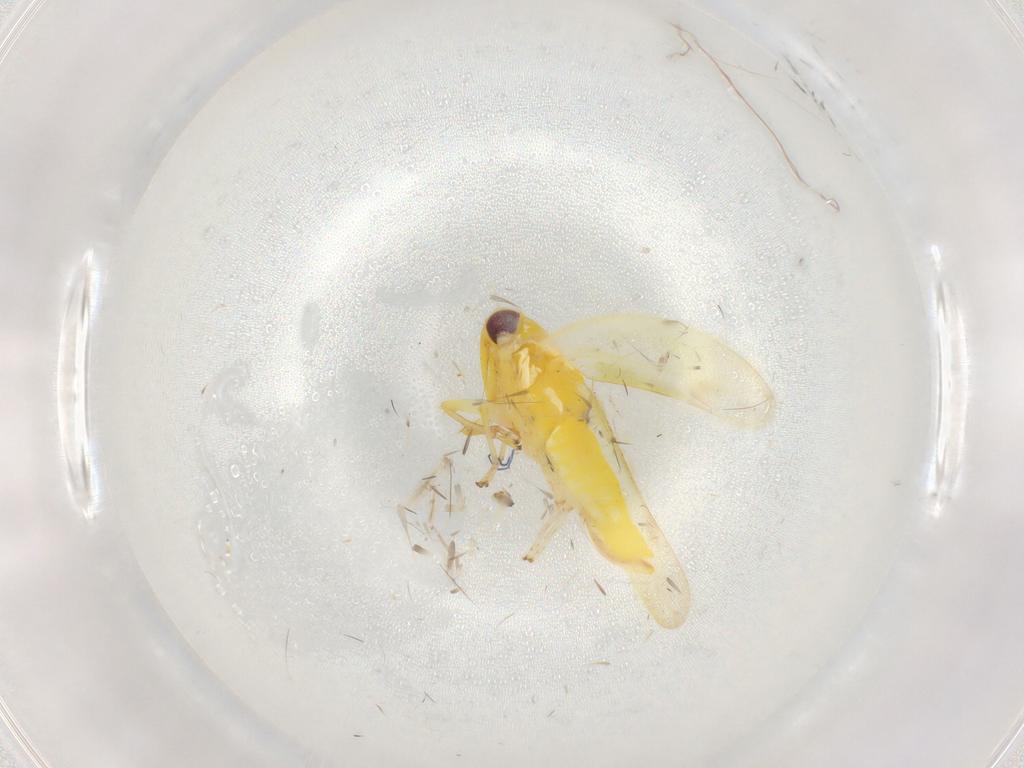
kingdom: Animalia
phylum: Arthropoda
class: Insecta
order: Hemiptera
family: Cicadellidae
